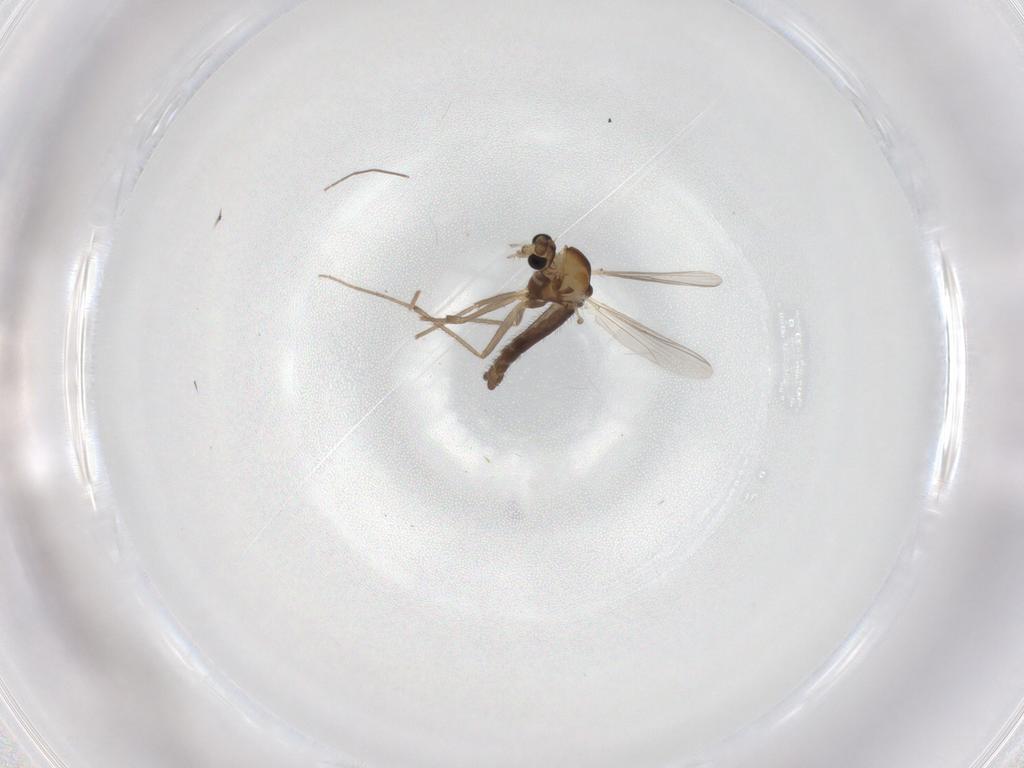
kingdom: Animalia
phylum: Arthropoda
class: Insecta
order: Diptera
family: Chironomidae
